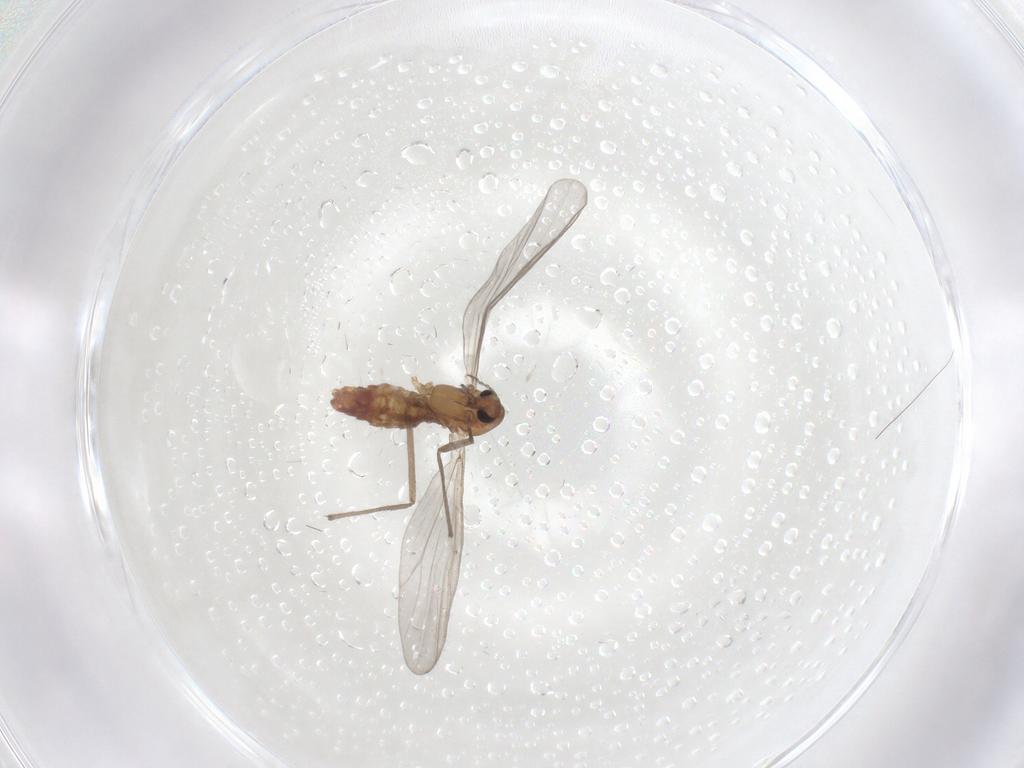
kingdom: Animalia
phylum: Arthropoda
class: Insecta
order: Diptera
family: Chironomidae
